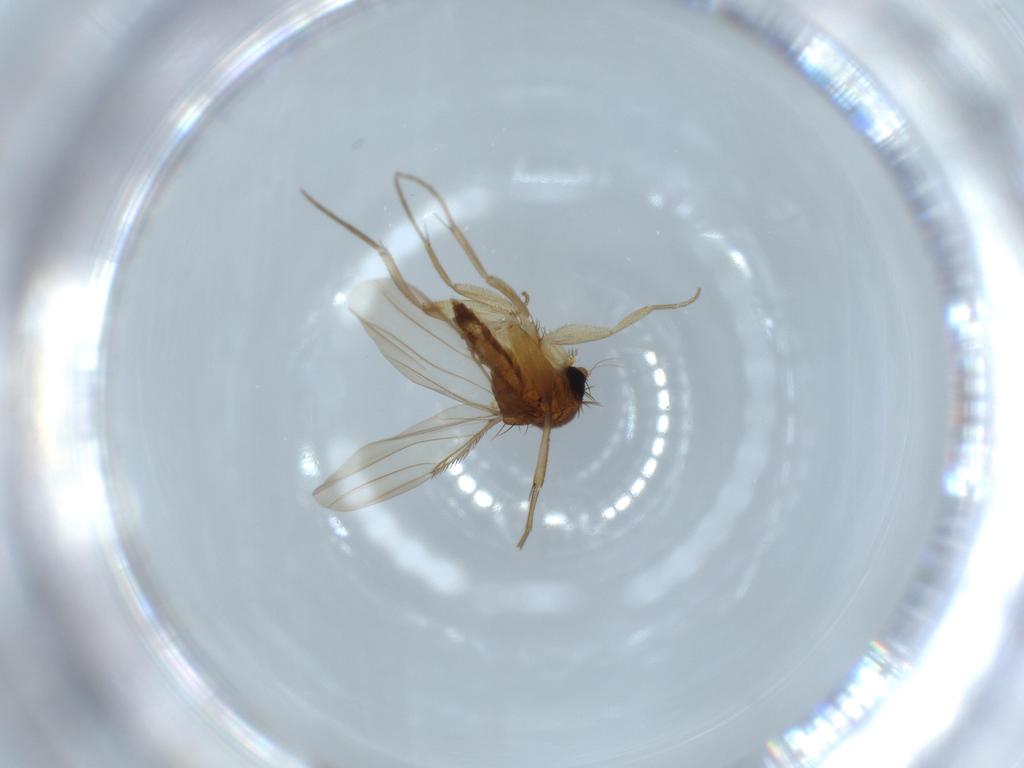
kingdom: Animalia
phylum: Arthropoda
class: Insecta
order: Diptera
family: Phoridae
